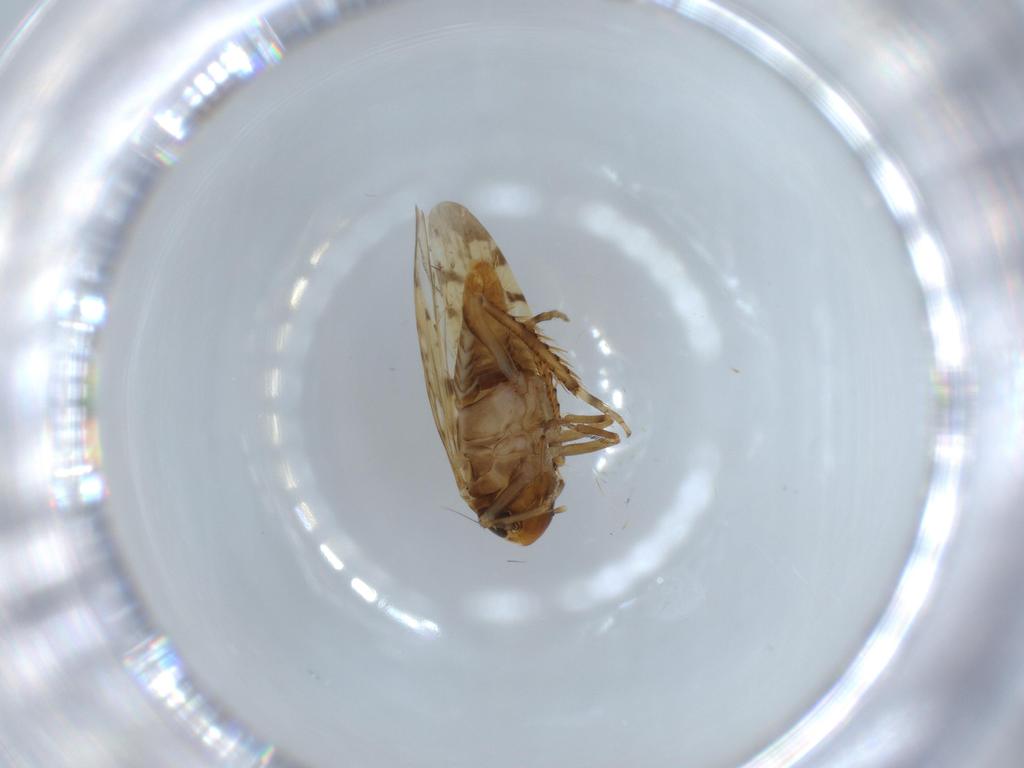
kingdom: Animalia
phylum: Arthropoda
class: Insecta
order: Hemiptera
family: Cicadellidae
